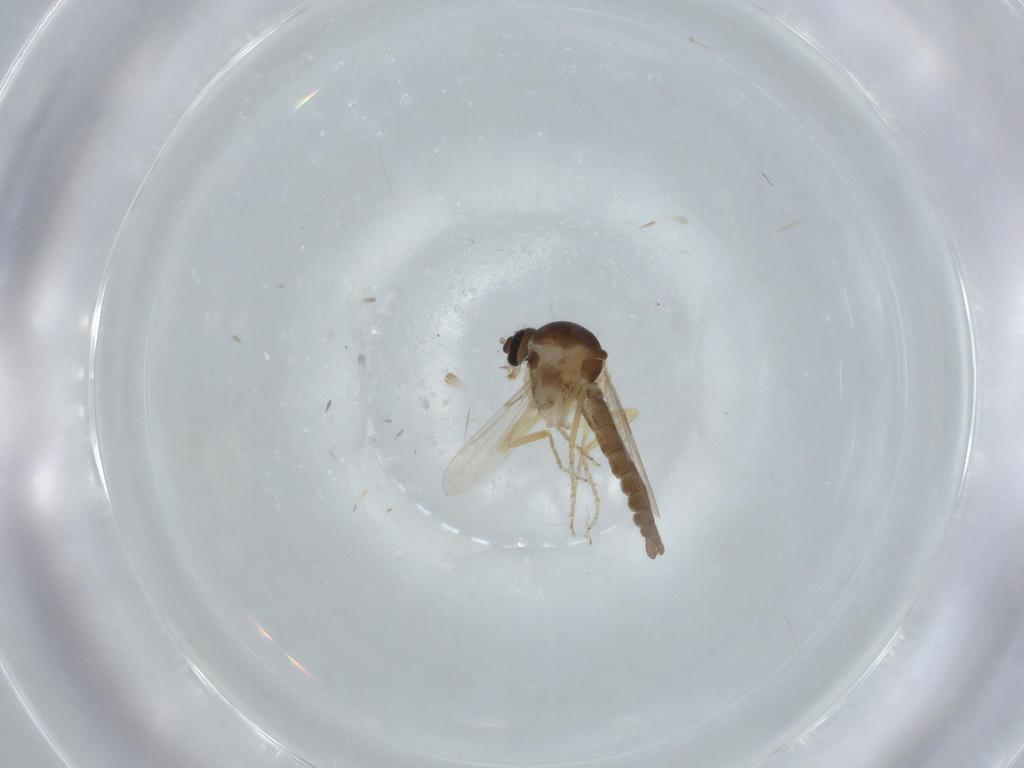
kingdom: Animalia
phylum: Arthropoda
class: Insecta
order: Diptera
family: Ceratopogonidae
